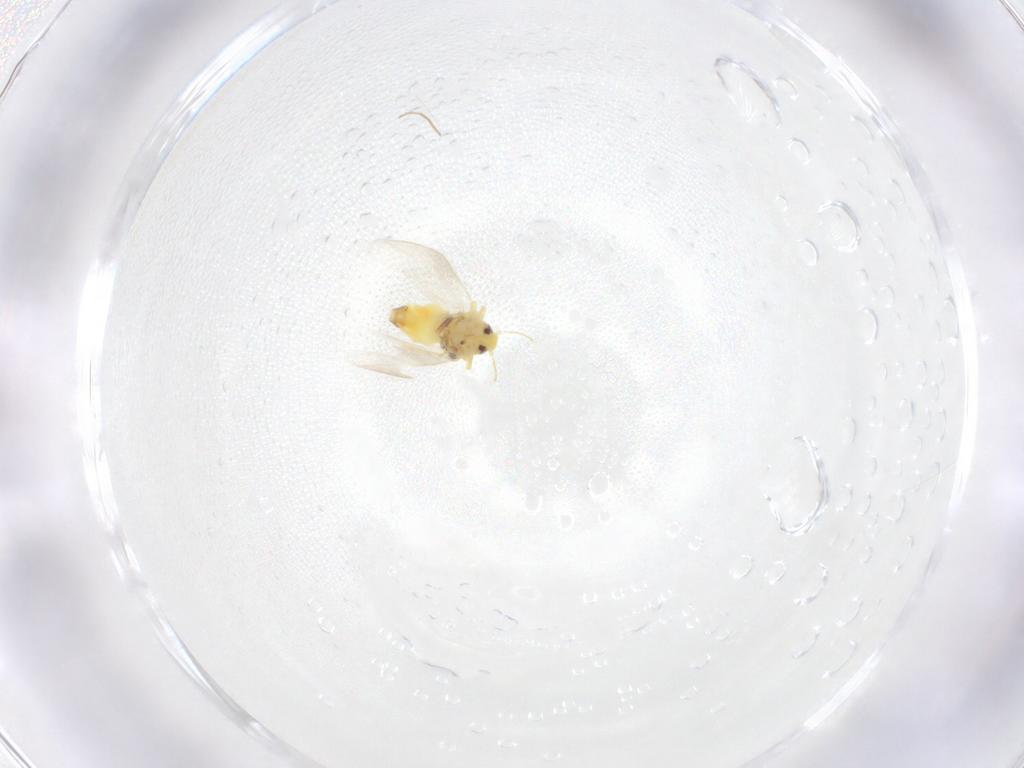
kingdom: Animalia
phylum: Arthropoda
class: Insecta
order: Hemiptera
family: Aleyrodidae
